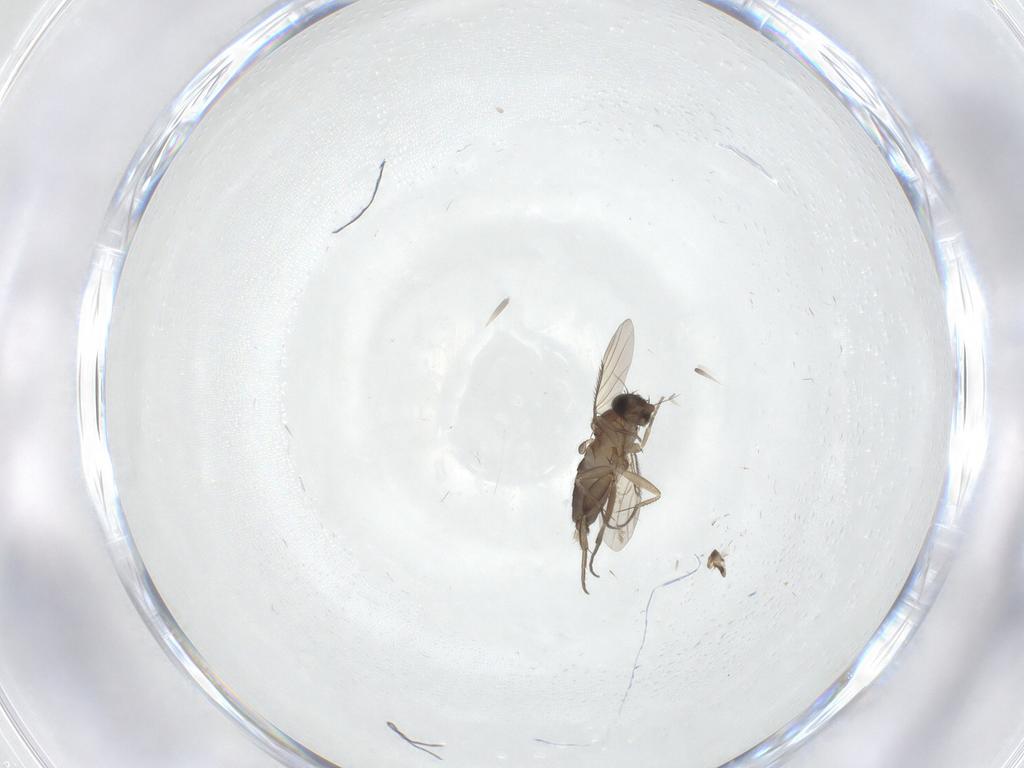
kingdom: Animalia
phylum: Arthropoda
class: Insecta
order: Diptera
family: Phoridae
